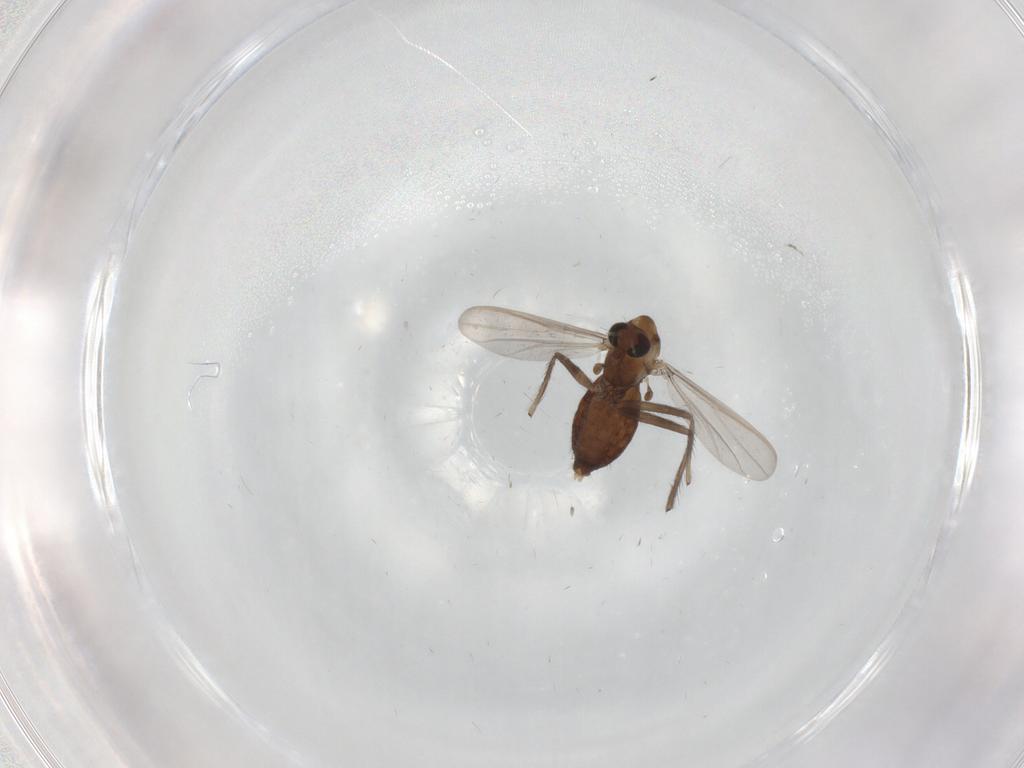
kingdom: Animalia
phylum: Arthropoda
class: Insecta
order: Diptera
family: Chironomidae
